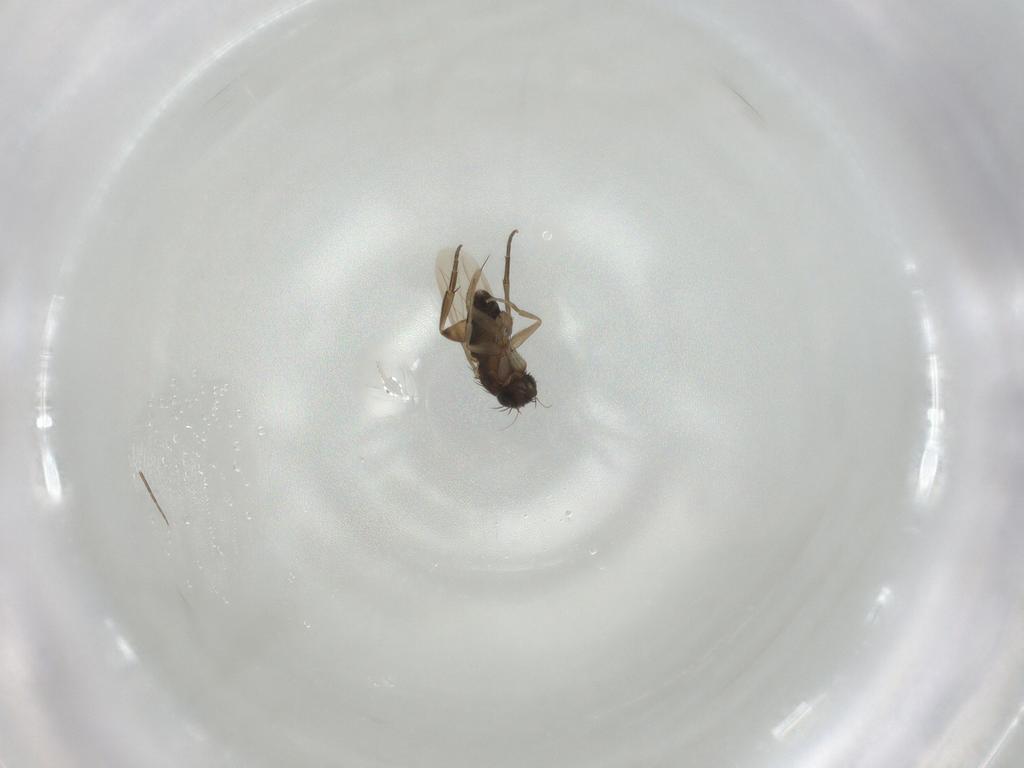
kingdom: Animalia
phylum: Arthropoda
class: Insecta
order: Diptera
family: Phoridae
